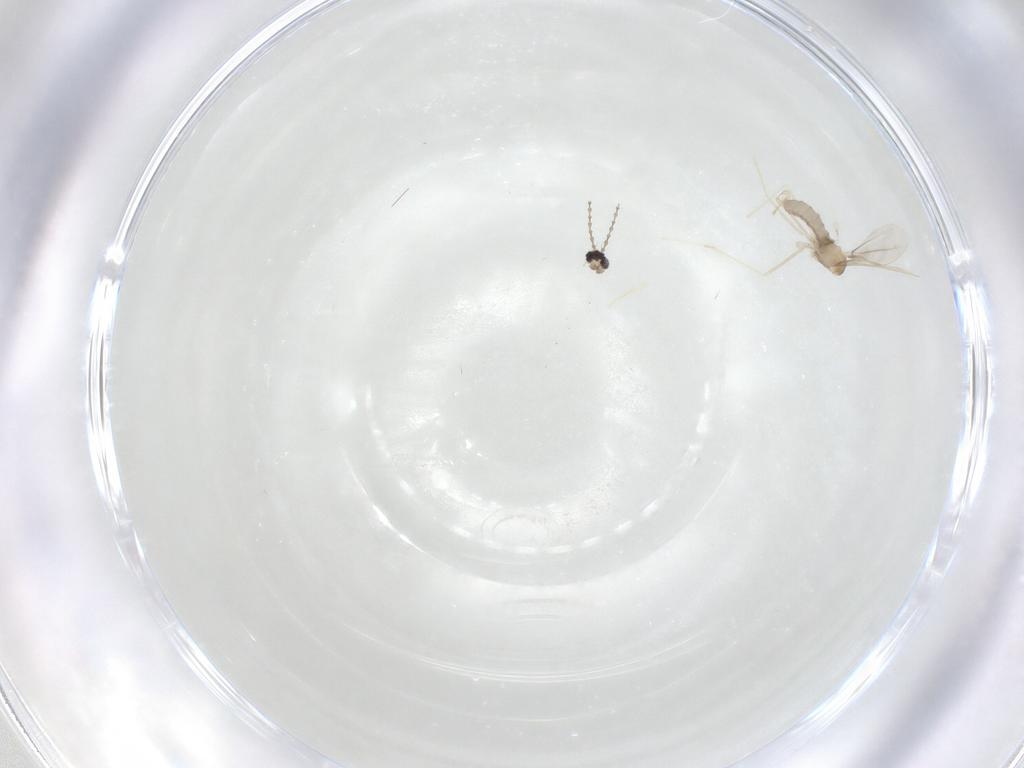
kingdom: Animalia
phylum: Arthropoda
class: Insecta
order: Diptera
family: Cecidomyiidae
